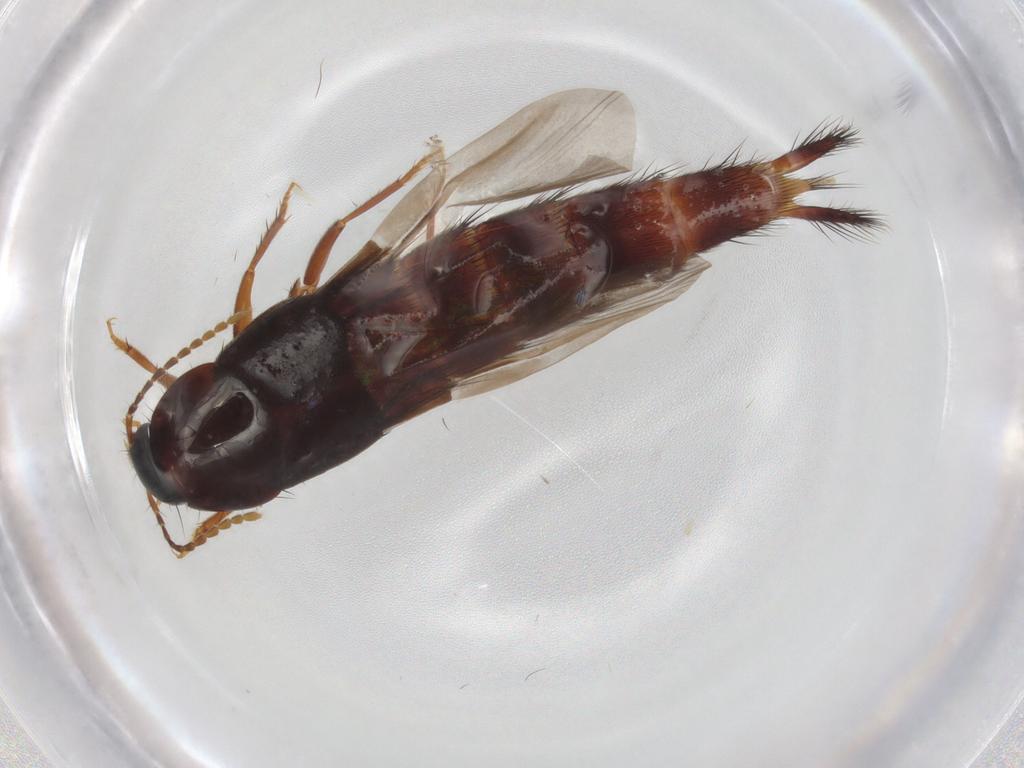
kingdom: Animalia
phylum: Arthropoda
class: Insecta
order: Coleoptera
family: Staphylinidae
